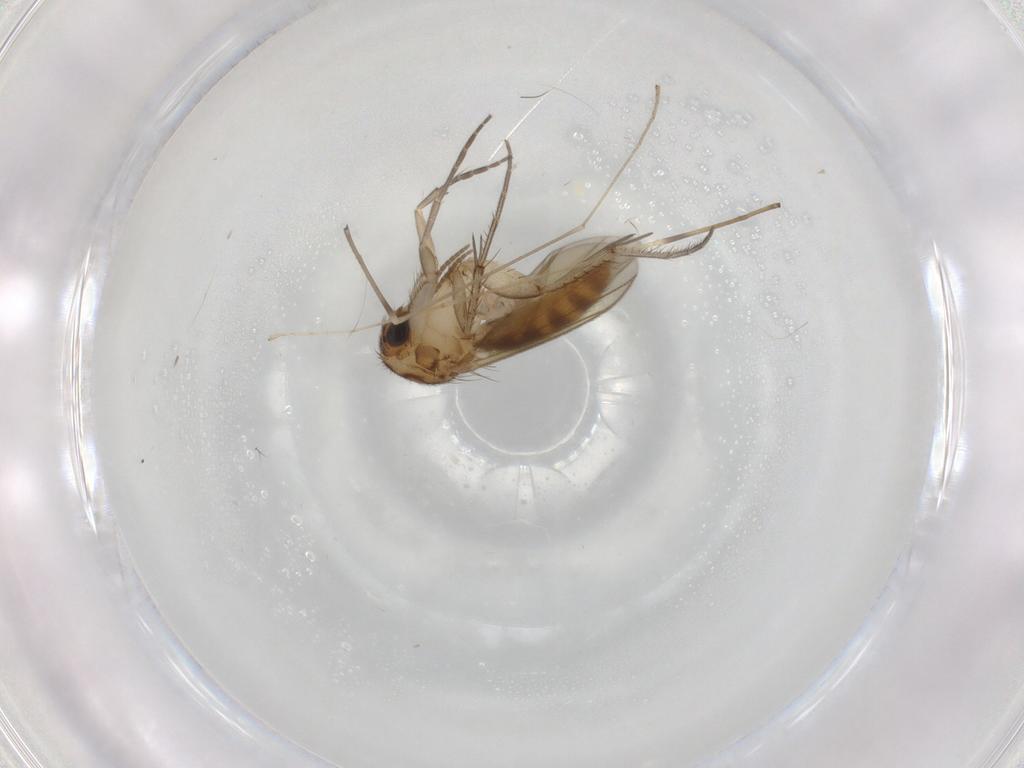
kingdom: Animalia
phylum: Arthropoda
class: Insecta
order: Diptera
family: Mycetophilidae
